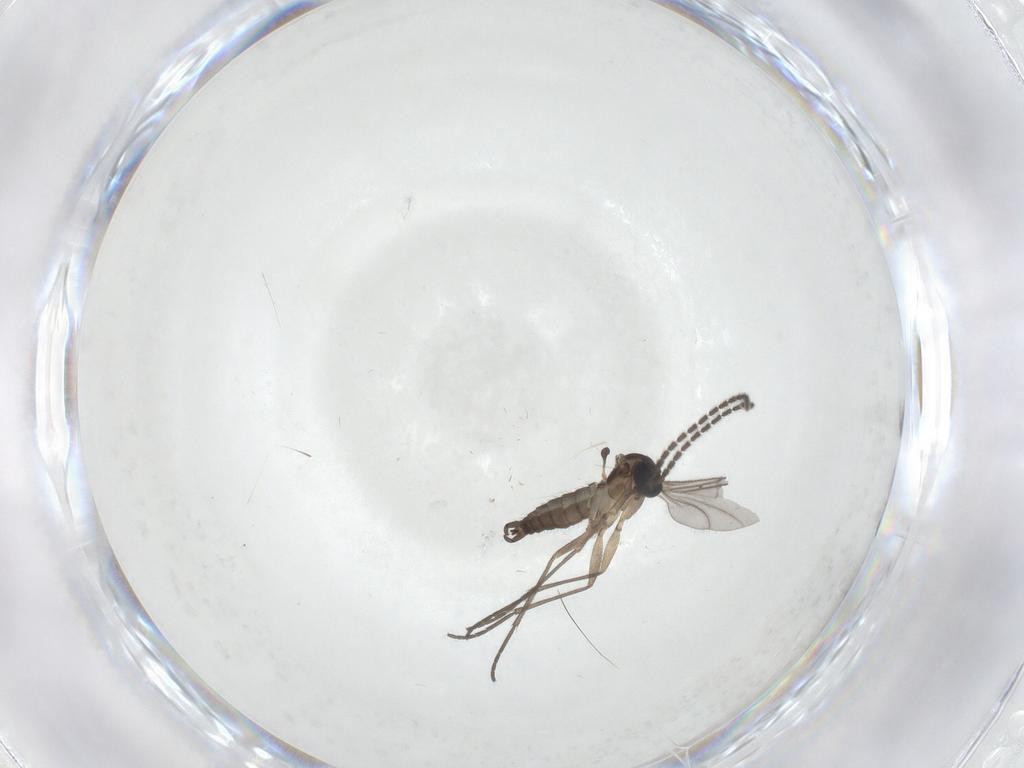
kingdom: Animalia
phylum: Arthropoda
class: Insecta
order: Diptera
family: Sciaridae
